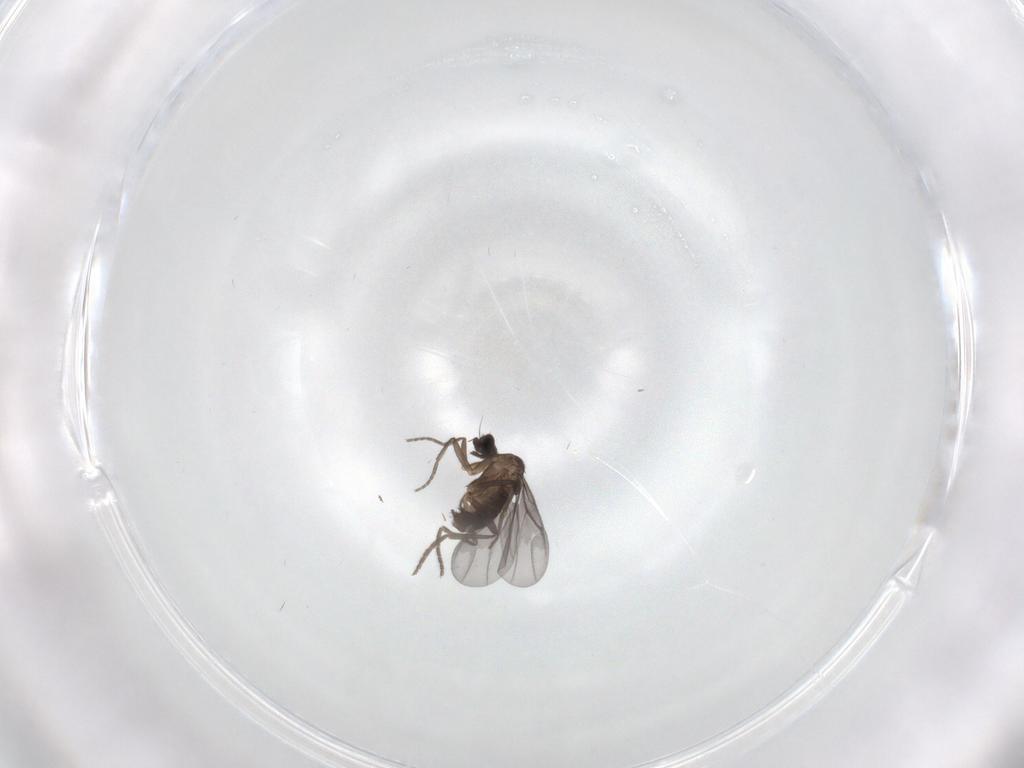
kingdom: Animalia
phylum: Arthropoda
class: Insecta
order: Diptera
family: Phoridae
